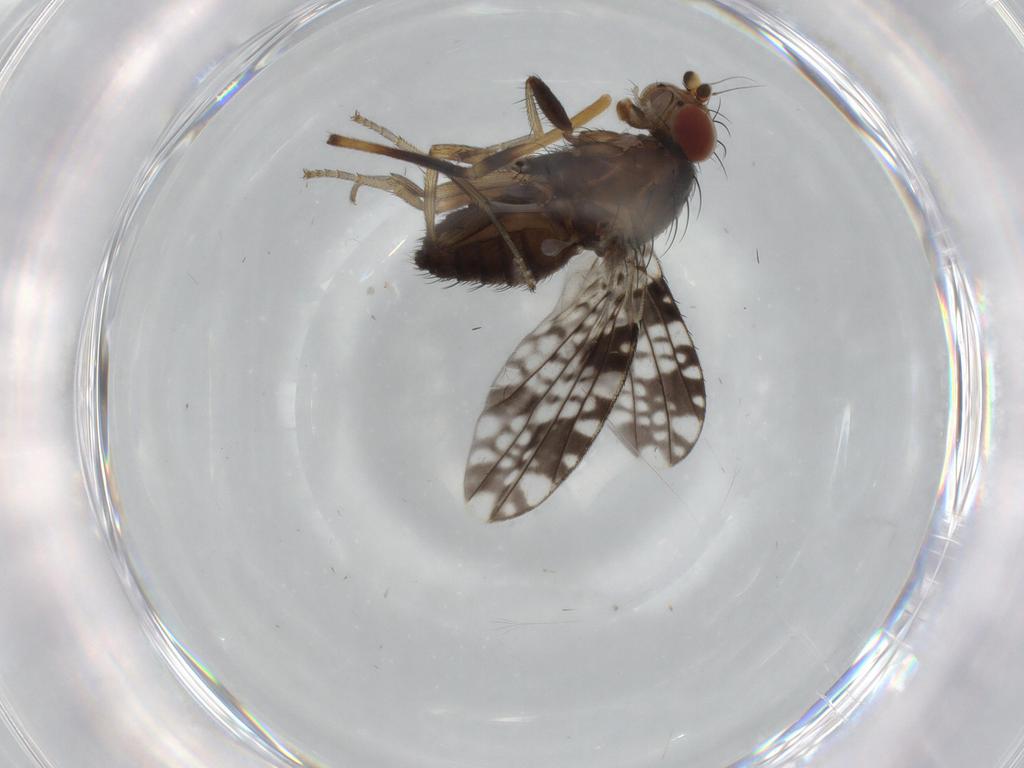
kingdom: Animalia
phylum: Arthropoda
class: Insecta
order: Diptera
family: Tephritidae
